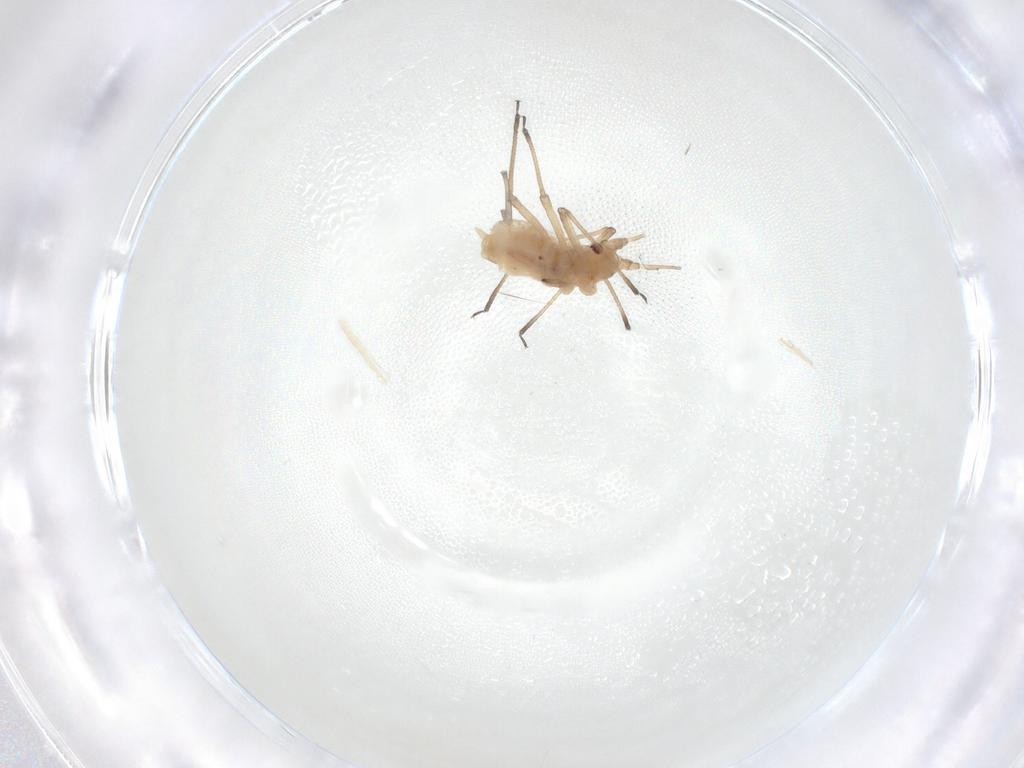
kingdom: Animalia
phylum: Arthropoda
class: Insecta
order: Hemiptera
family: Aphididae
